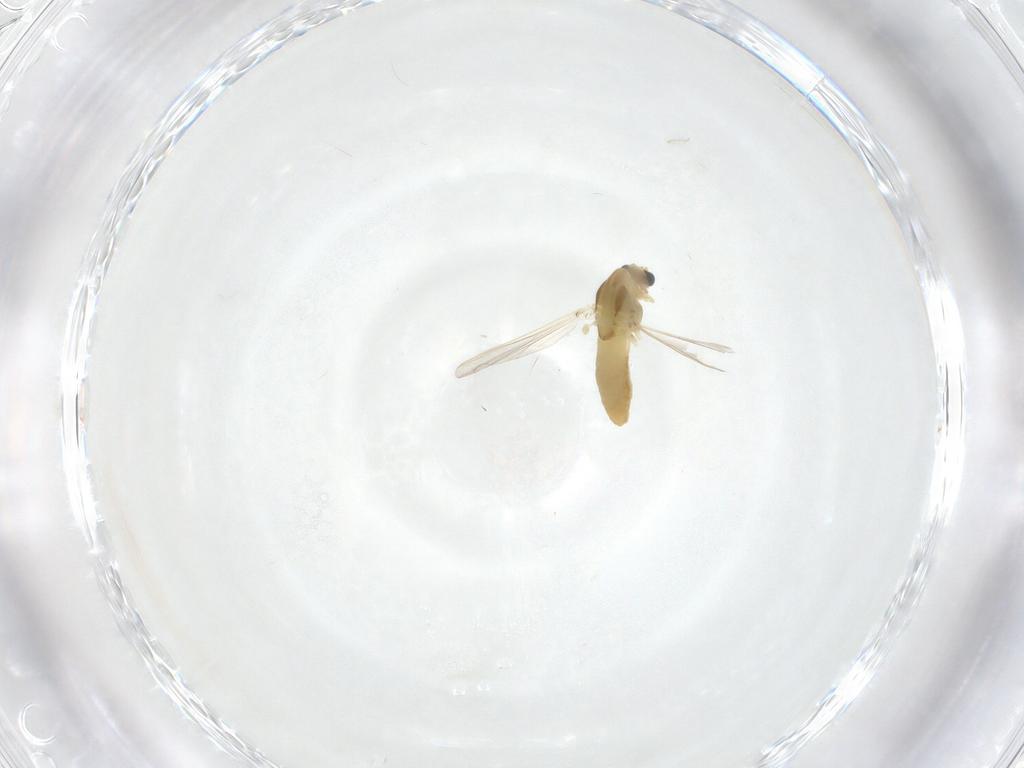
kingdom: Animalia
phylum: Arthropoda
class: Insecta
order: Diptera
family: Chironomidae
